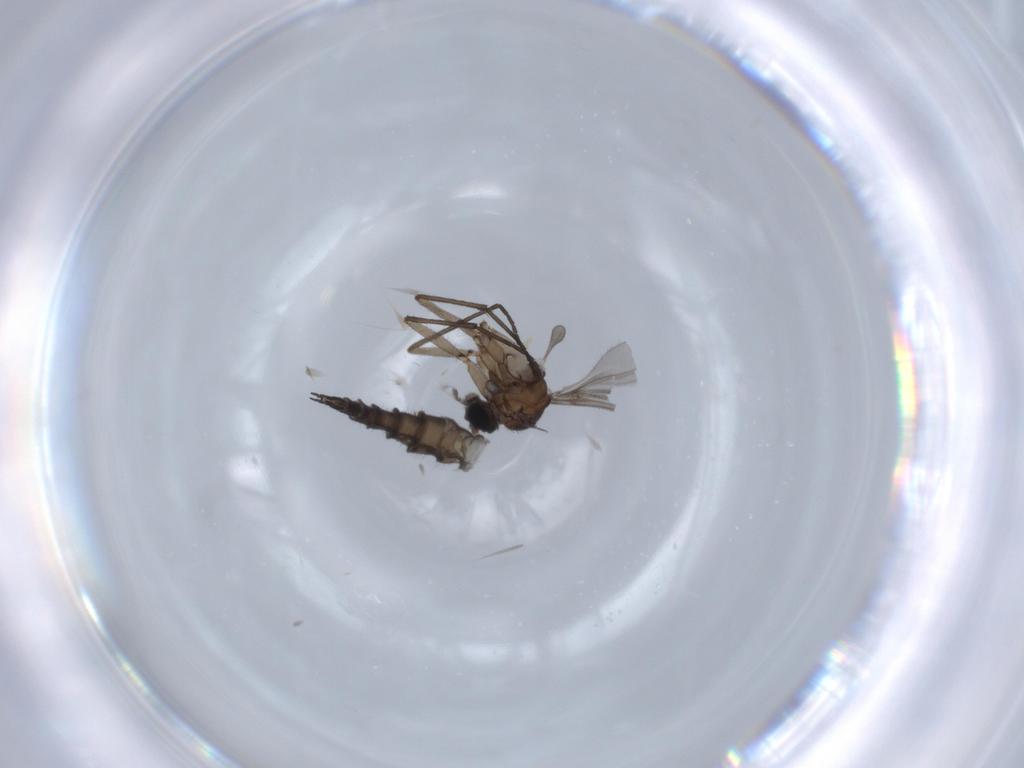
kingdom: Animalia
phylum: Arthropoda
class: Insecta
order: Diptera
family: Sciaridae
